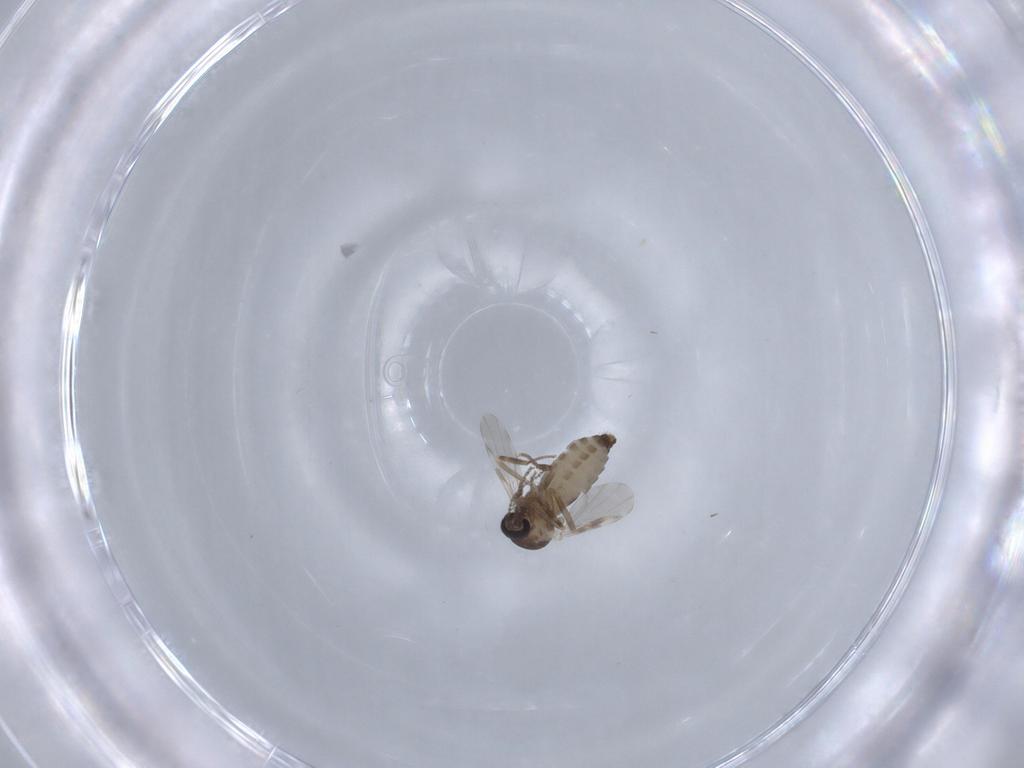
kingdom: Animalia
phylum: Arthropoda
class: Insecta
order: Diptera
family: Ceratopogonidae
